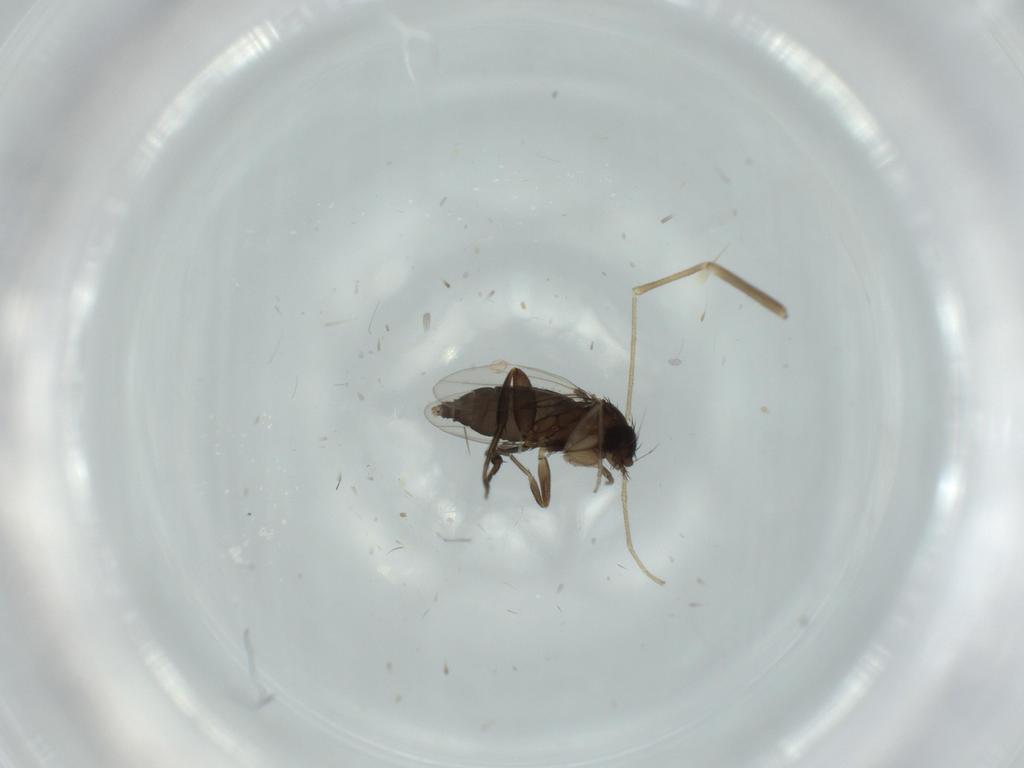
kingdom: Animalia
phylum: Arthropoda
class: Insecta
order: Diptera
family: Phoridae
